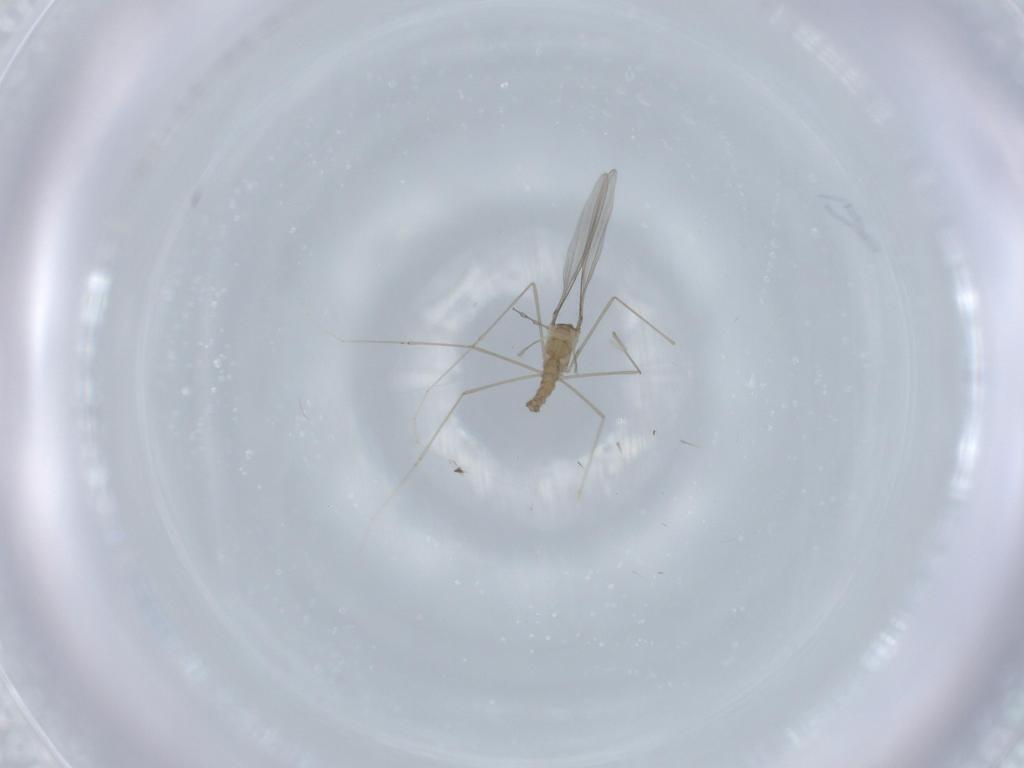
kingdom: Animalia
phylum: Arthropoda
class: Insecta
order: Diptera
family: Cecidomyiidae
